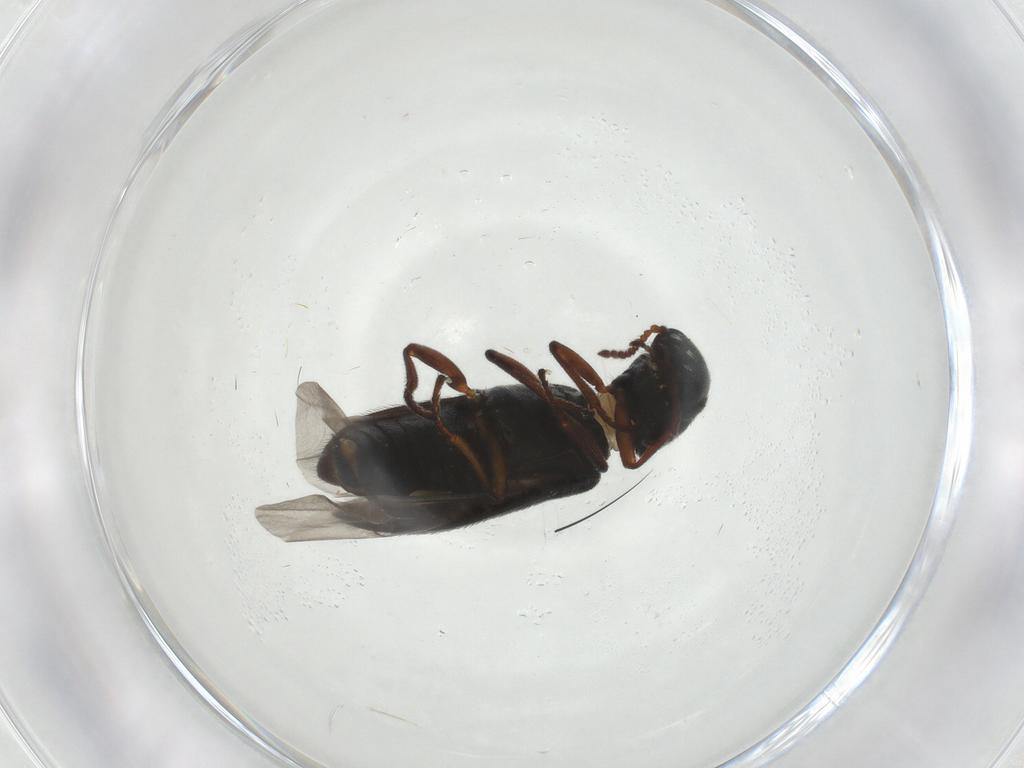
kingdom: Animalia
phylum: Arthropoda
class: Insecta
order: Coleoptera
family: Melyridae
